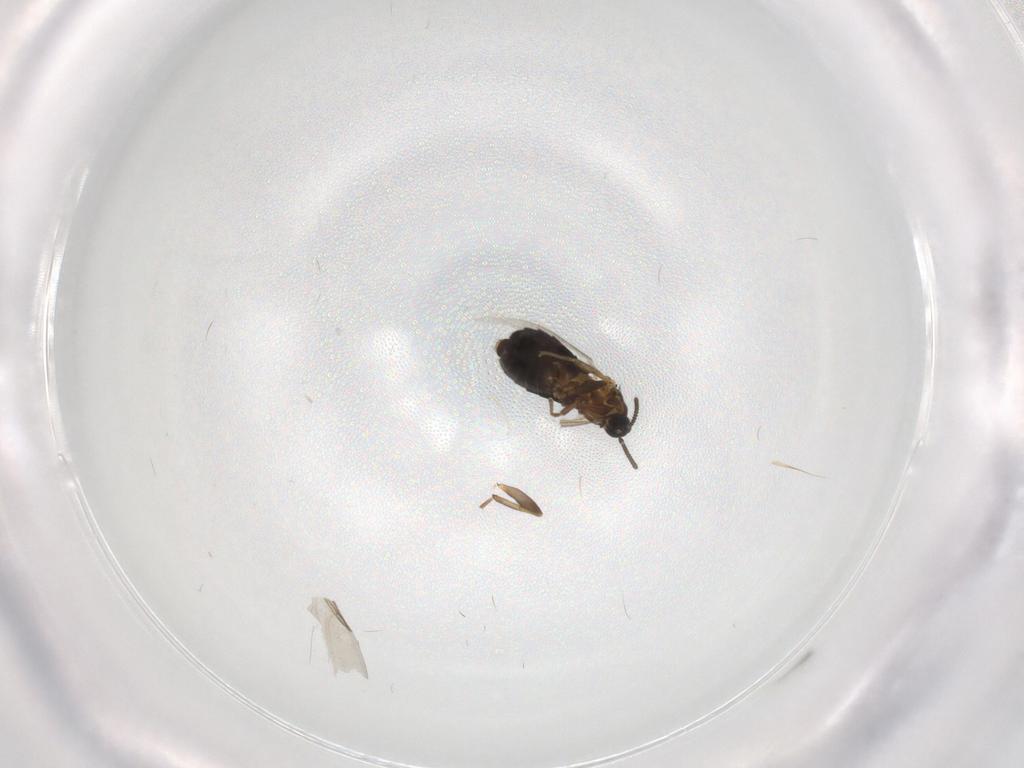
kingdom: Animalia
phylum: Arthropoda
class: Insecta
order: Diptera
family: Scatopsidae
